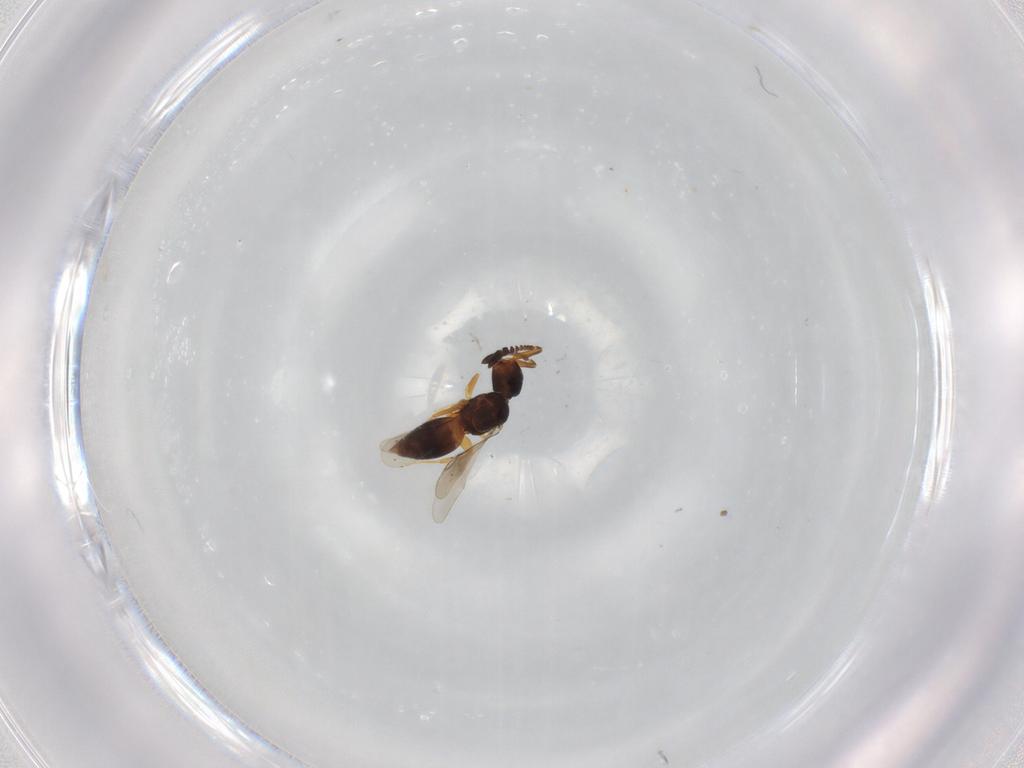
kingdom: Animalia
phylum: Arthropoda
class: Insecta
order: Hymenoptera
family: Ceraphronidae
